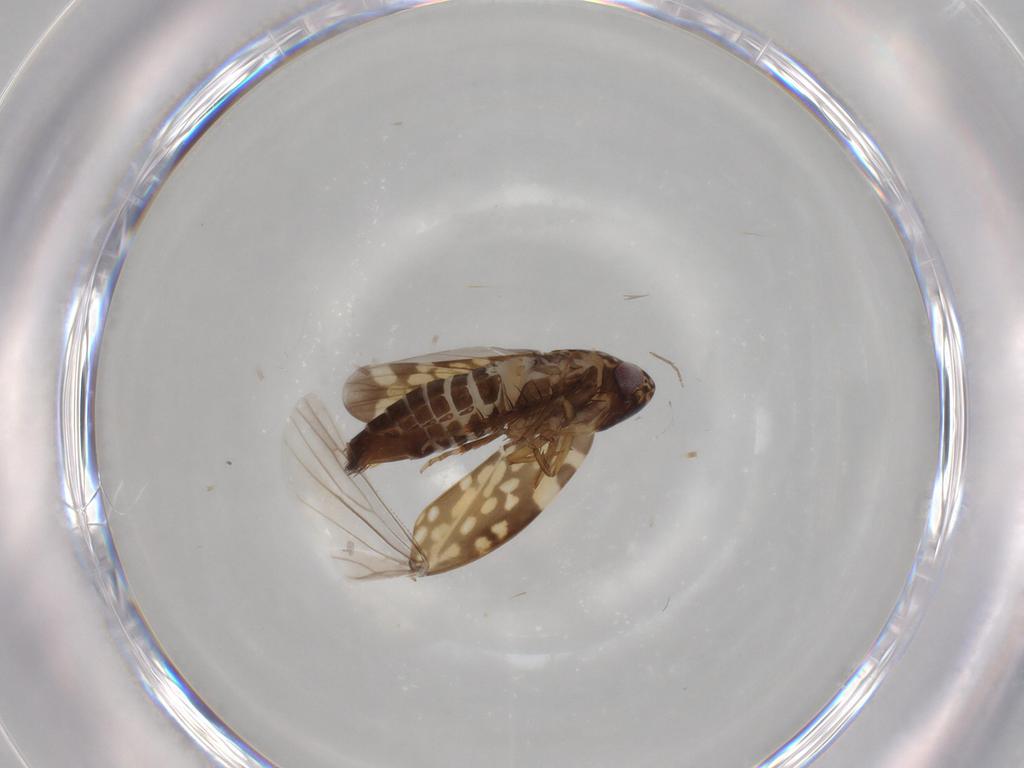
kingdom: Animalia
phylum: Arthropoda
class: Insecta
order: Hemiptera
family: Cicadellidae
